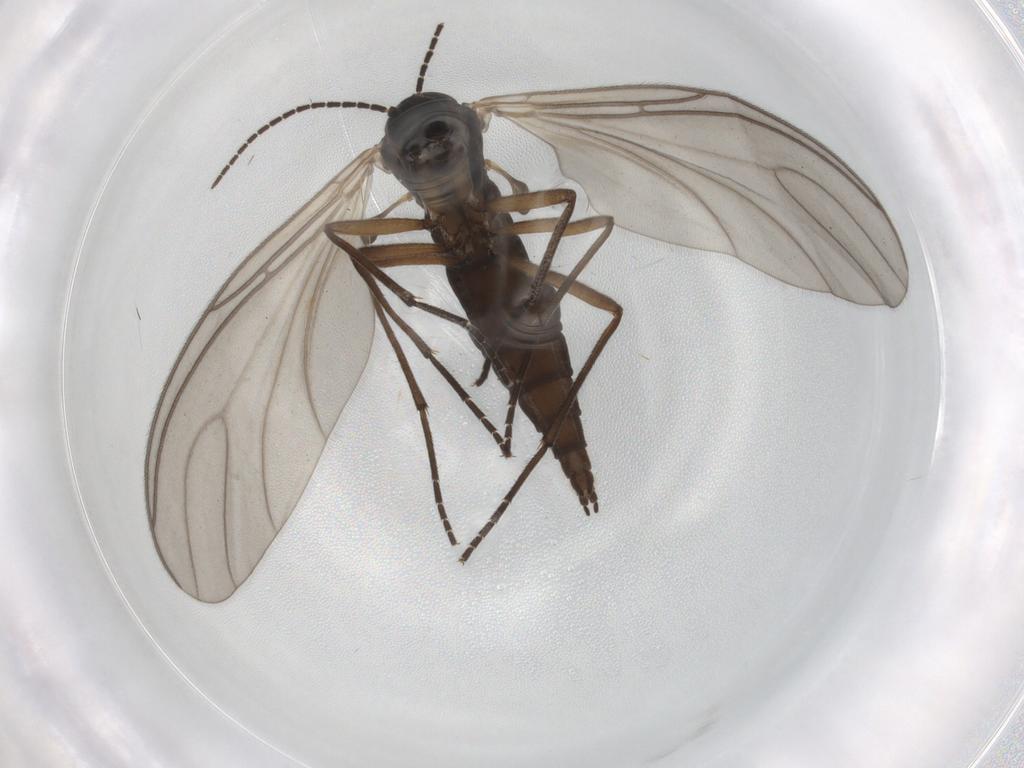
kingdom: Animalia
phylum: Arthropoda
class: Insecta
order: Diptera
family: Sciaridae
